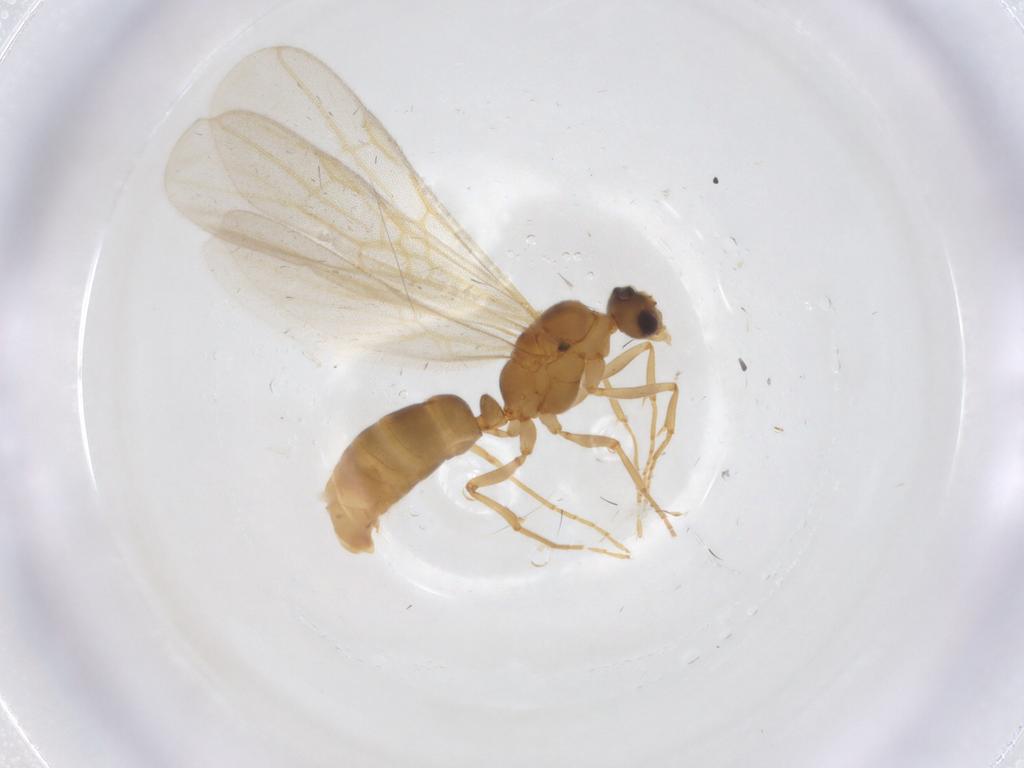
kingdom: Animalia
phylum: Arthropoda
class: Insecta
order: Hymenoptera
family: Formicidae
